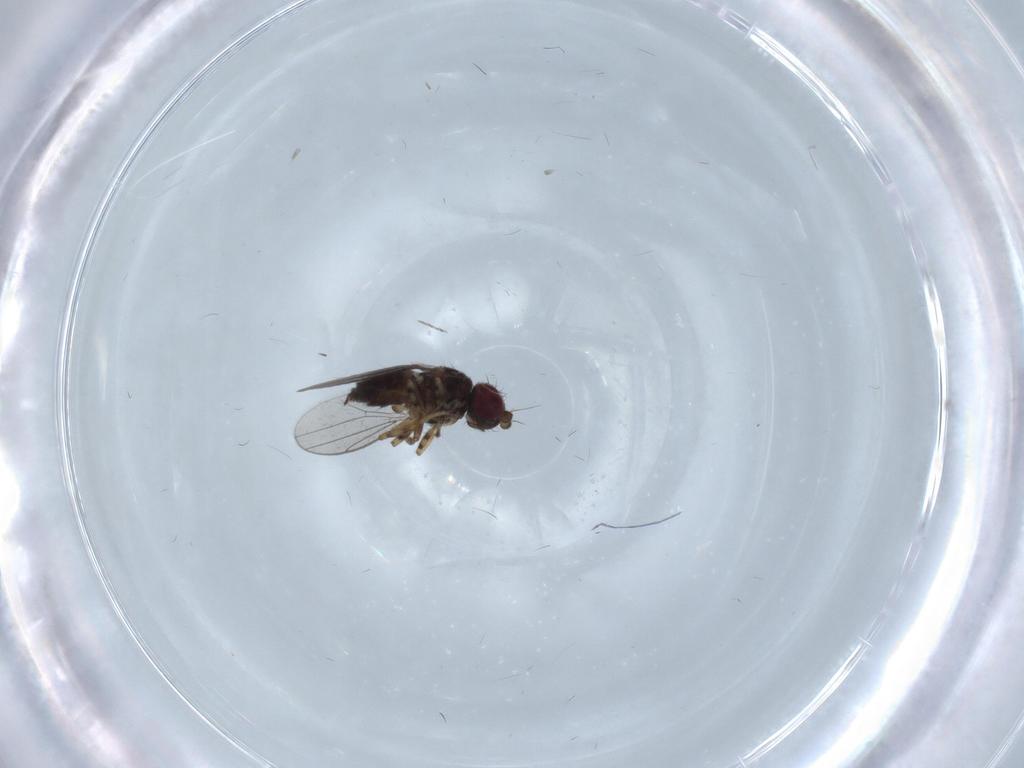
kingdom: Animalia
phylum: Arthropoda
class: Insecta
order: Diptera
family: Chloropidae
